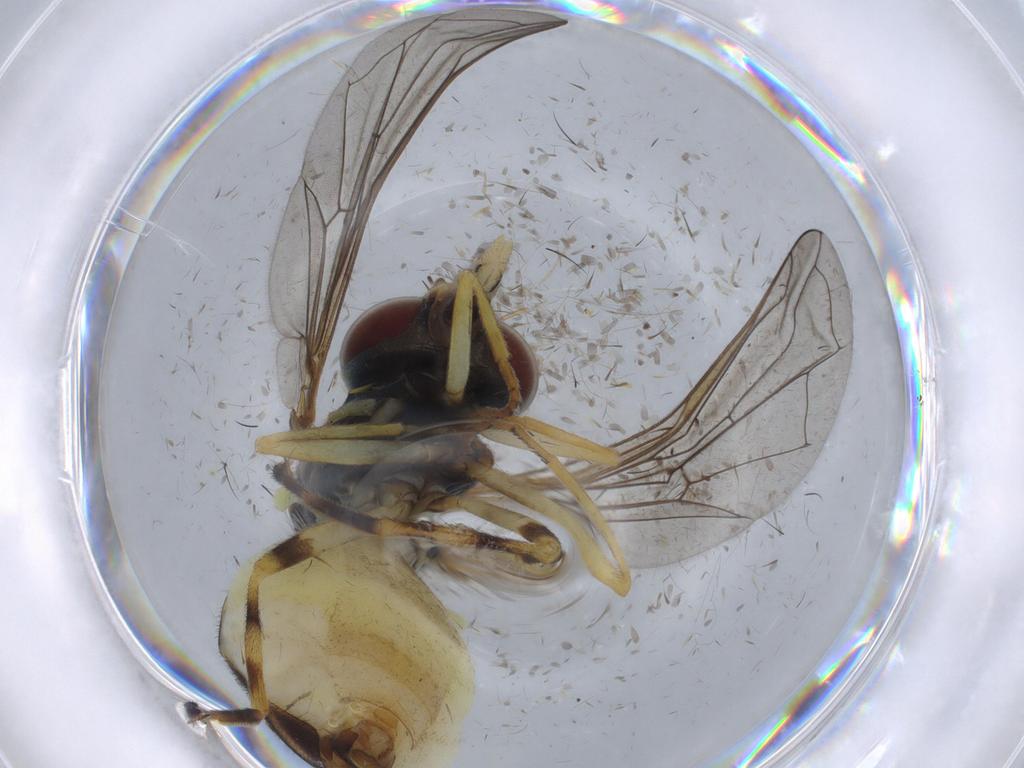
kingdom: Animalia
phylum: Arthropoda
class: Insecta
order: Diptera
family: Syrphidae
